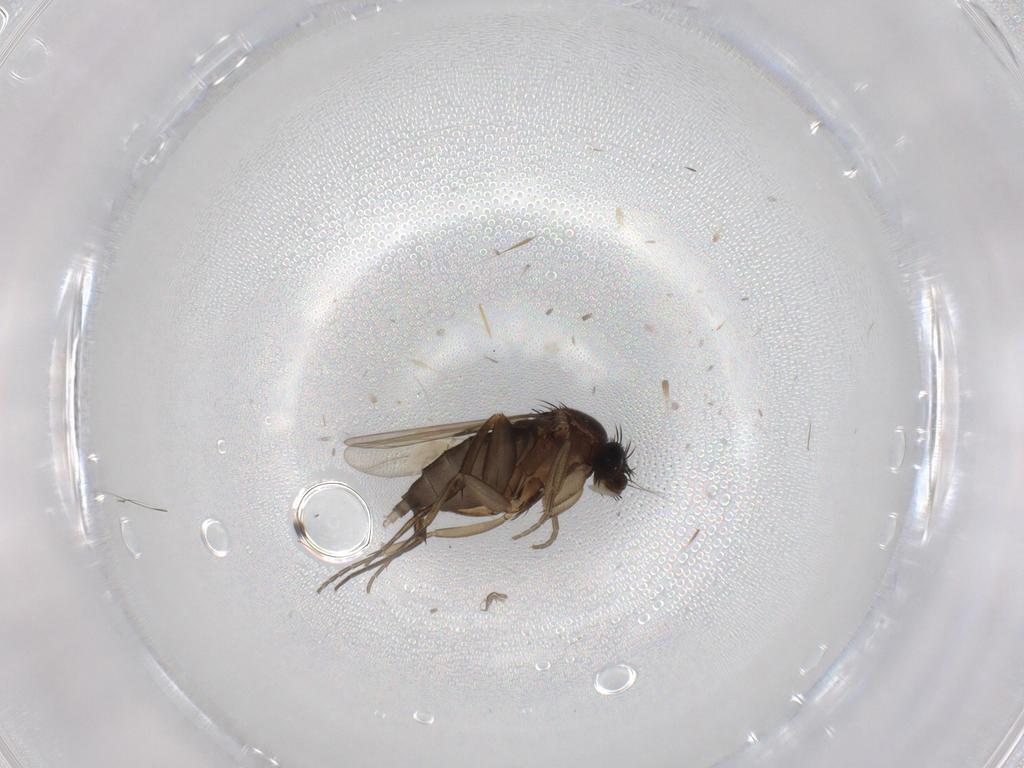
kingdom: Animalia
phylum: Arthropoda
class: Insecta
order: Diptera
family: Phoridae
